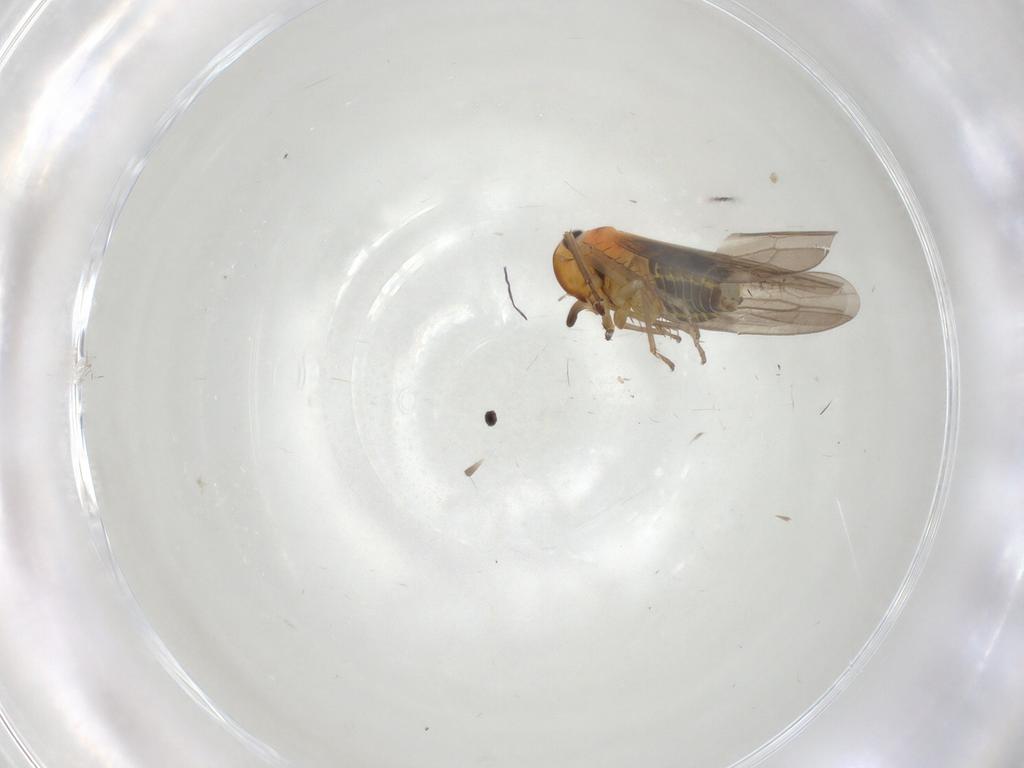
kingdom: Animalia
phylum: Arthropoda
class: Insecta
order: Hemiptera
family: Cicadellidae
